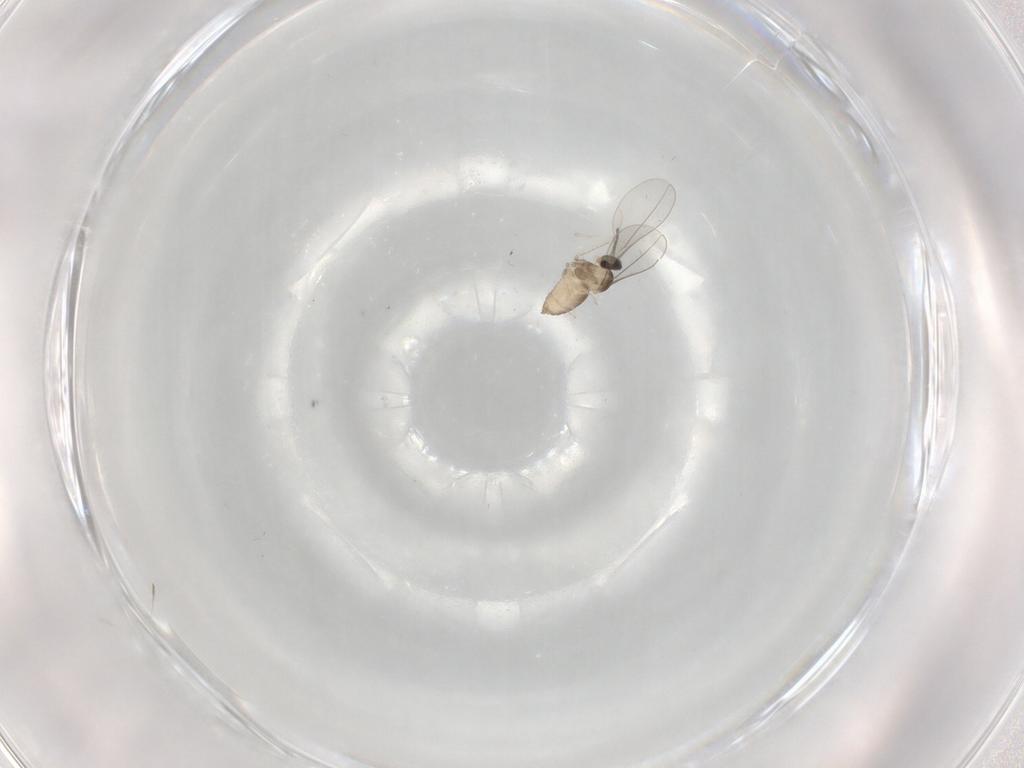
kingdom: Animalia
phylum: Arthropoda
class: Insecta
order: Diptera
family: Cecidomyiidae
